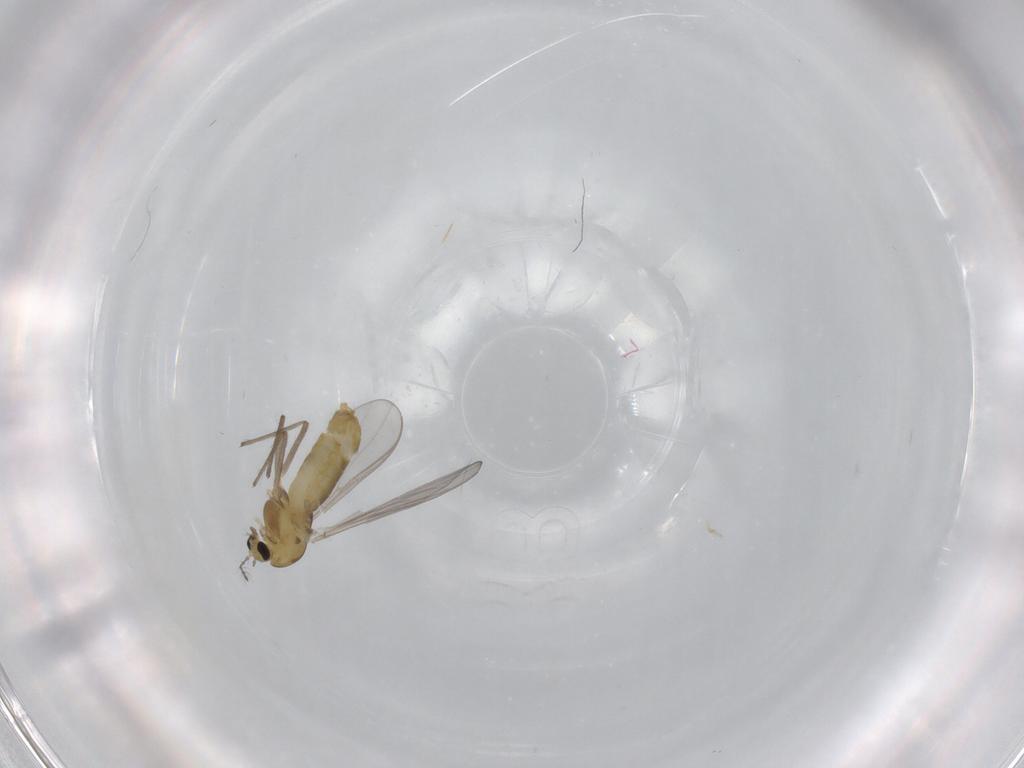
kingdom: Animalia
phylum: Arthropoda
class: Insecta
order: Diptera
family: Chironomidae
